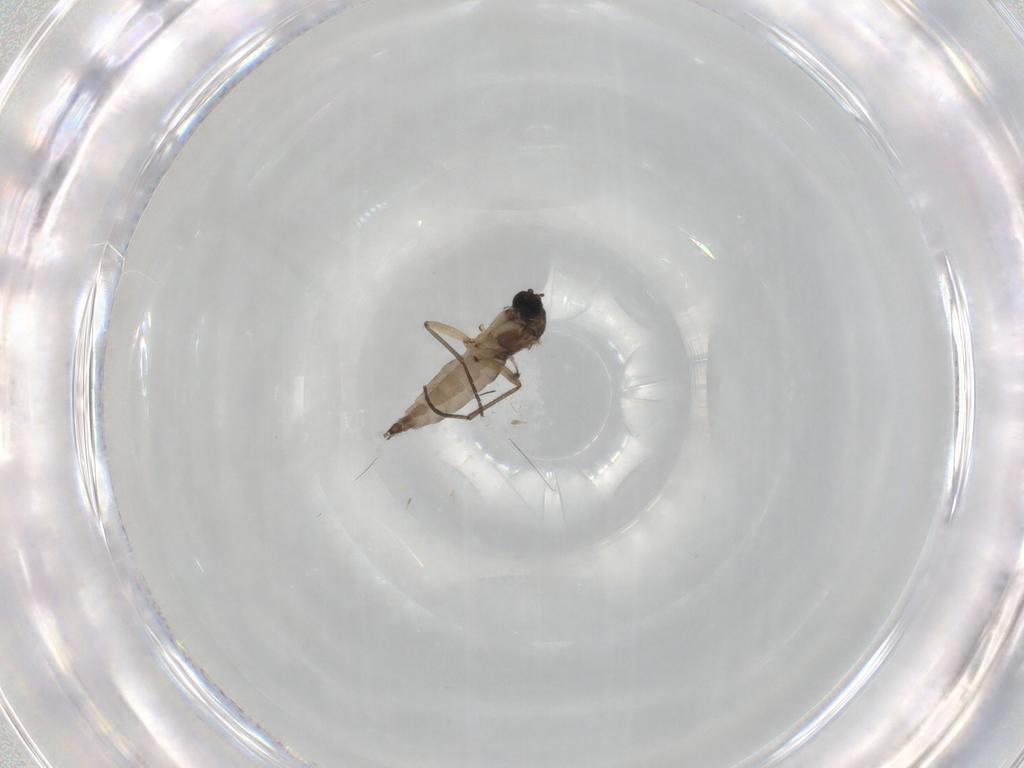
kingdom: Animalia
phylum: Arthropoda
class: Insecta
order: Diptera
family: Sciaridae
